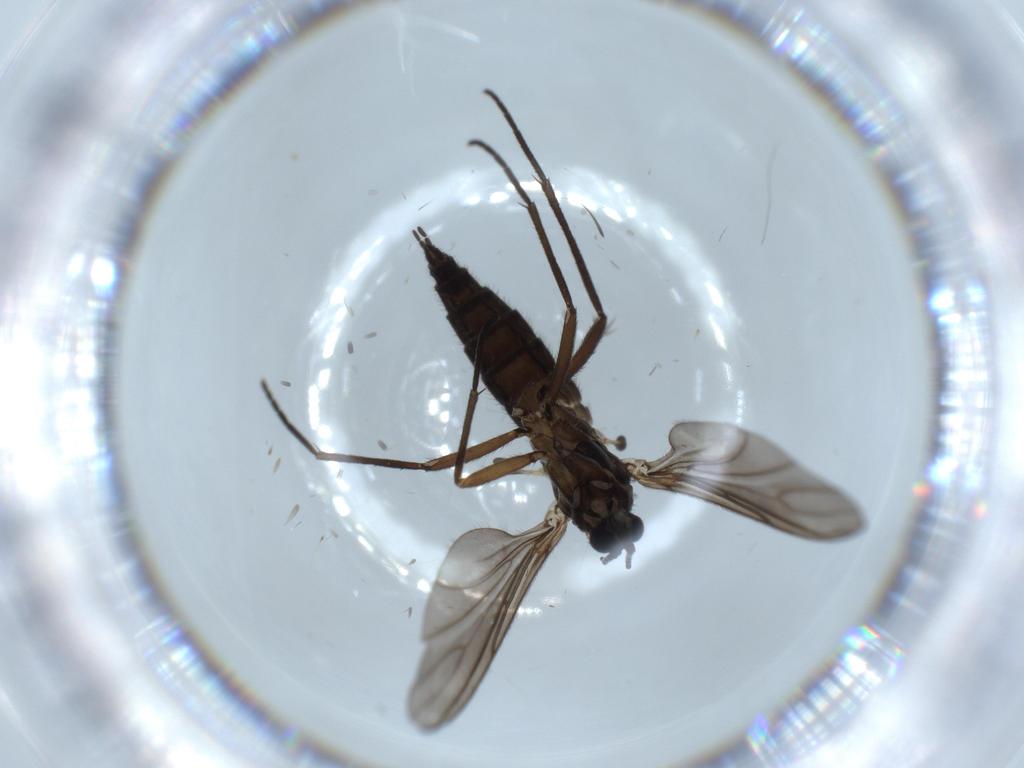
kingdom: Animalia
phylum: Arthropoda
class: Insecta
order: Diptera
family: Sciaridae
